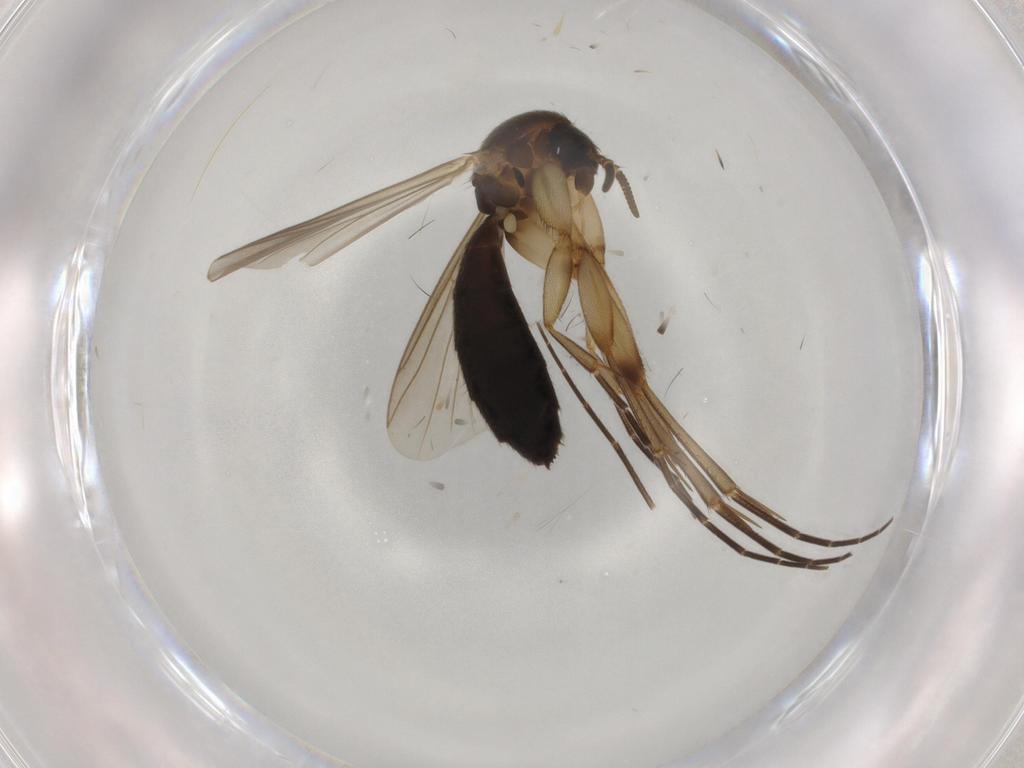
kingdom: Animalia
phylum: Arthropoda
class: Insecta
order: Diptera
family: Mycetophilidae
